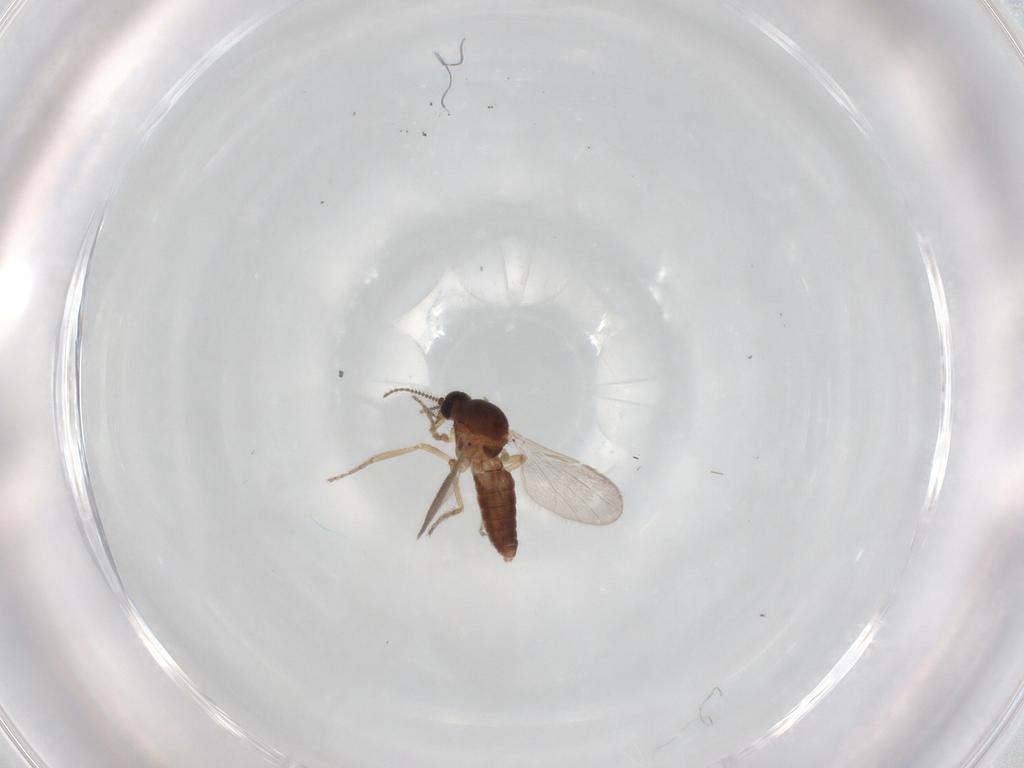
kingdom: Animalia
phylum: Arthropoda
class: Insecta
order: Diptera
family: Ceratopogonidae
